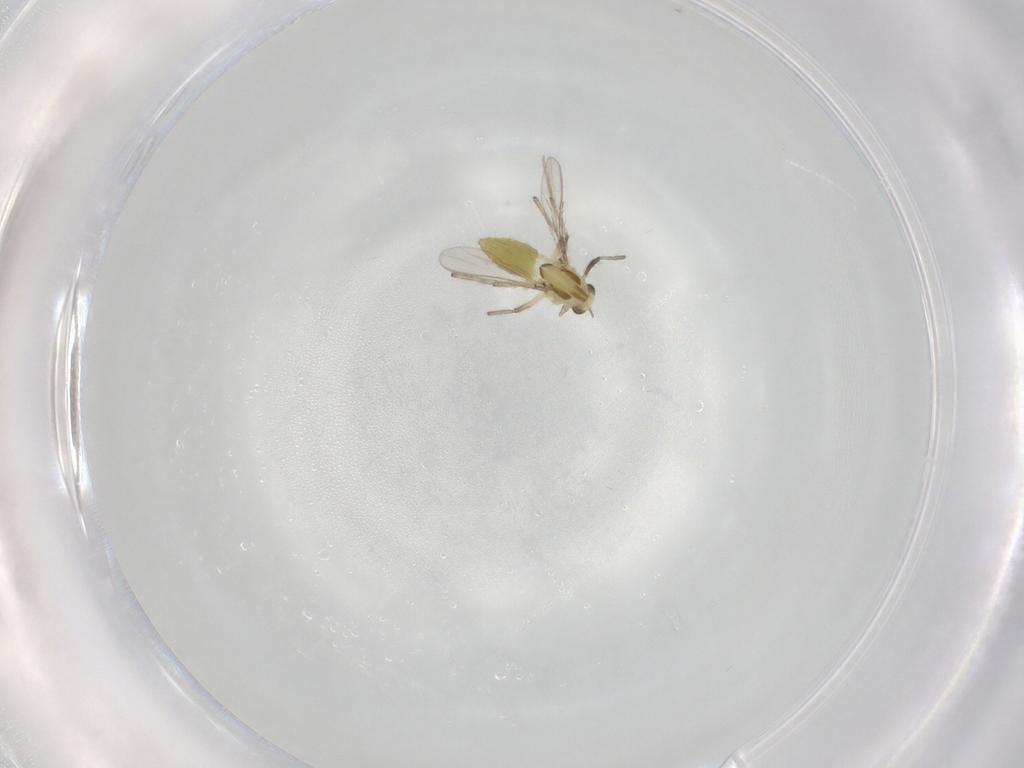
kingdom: Animalia
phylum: Arthropoda
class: Insecta
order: Diptera
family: Chironomidae
